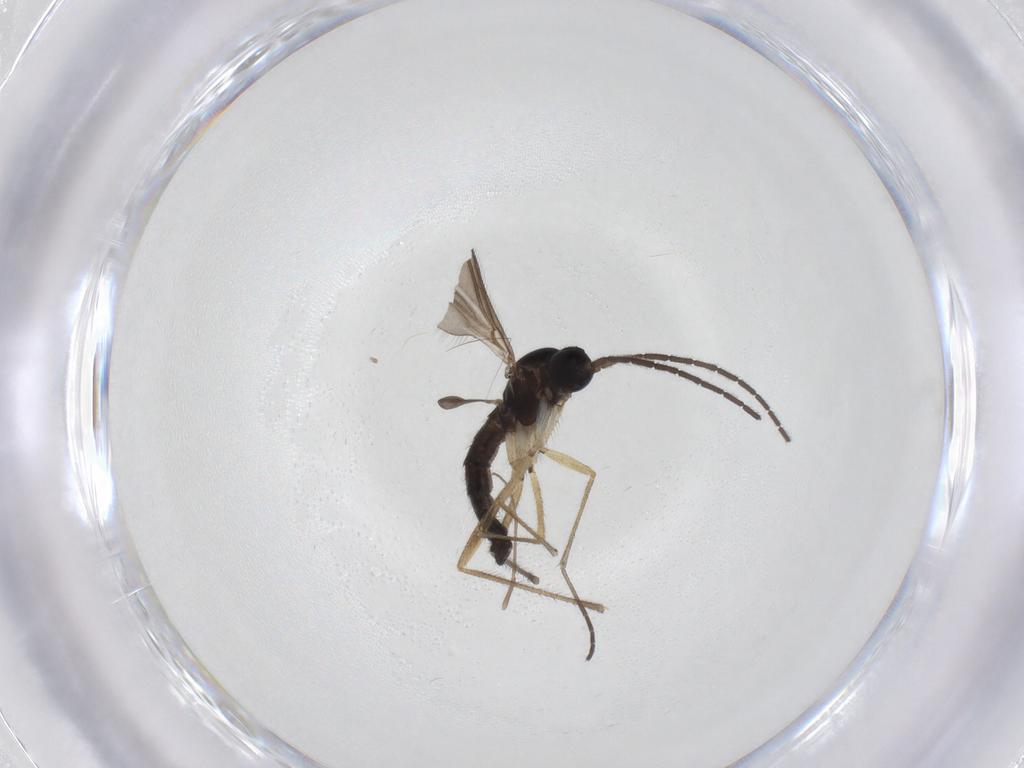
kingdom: Animalia
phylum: Arthropoda
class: Insecta
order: Diptera
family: Sciaridae
